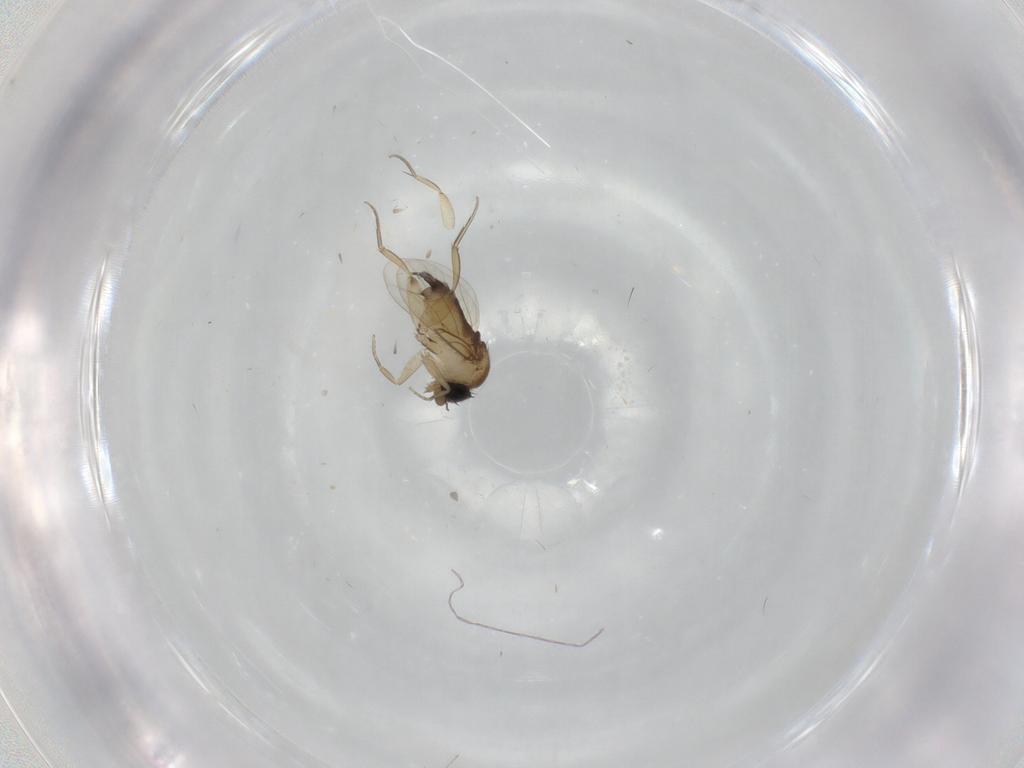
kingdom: Animalia
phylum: Arthropoda
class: Insecta
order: Diptera
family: Phoridae
